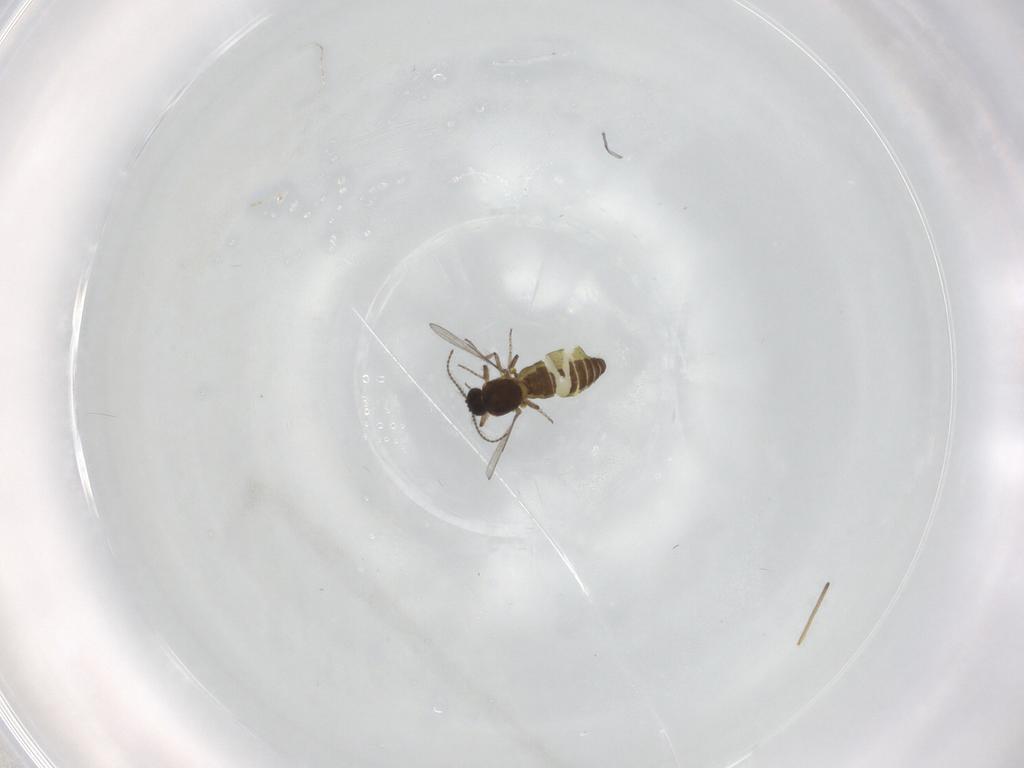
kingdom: Animalia
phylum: Arthropoda
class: Insecta
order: Diptera
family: Ceratopogonidae
